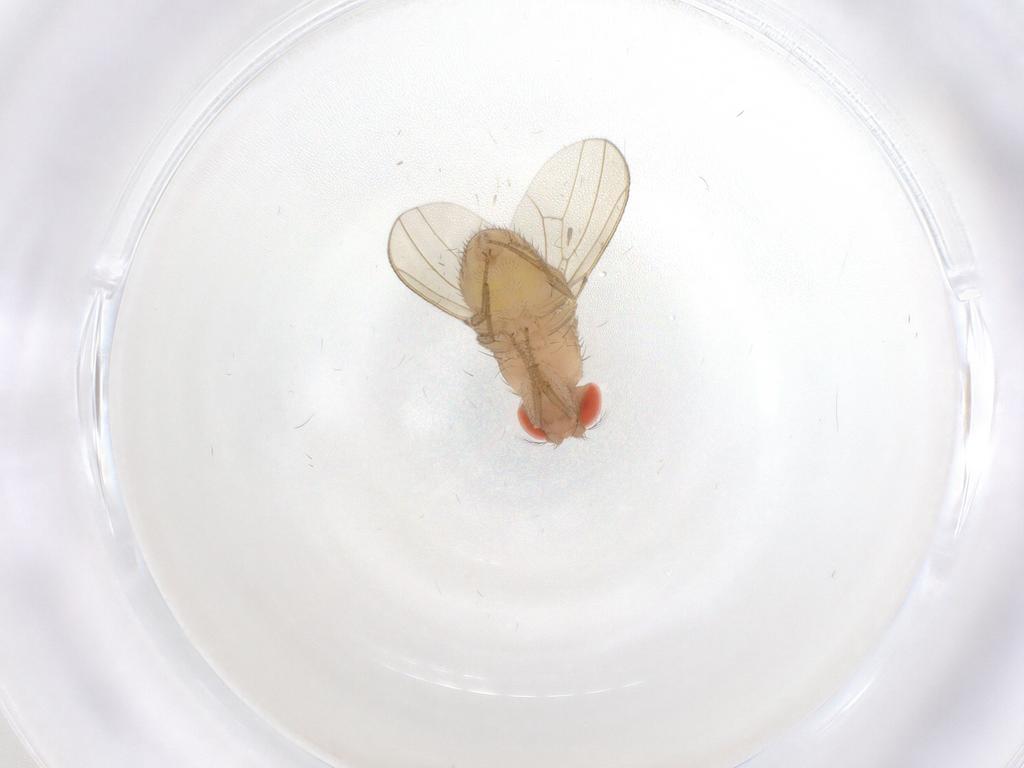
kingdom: Animalia
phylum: Arthropoda
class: Insecta
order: Diptera
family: Drosophilidae
